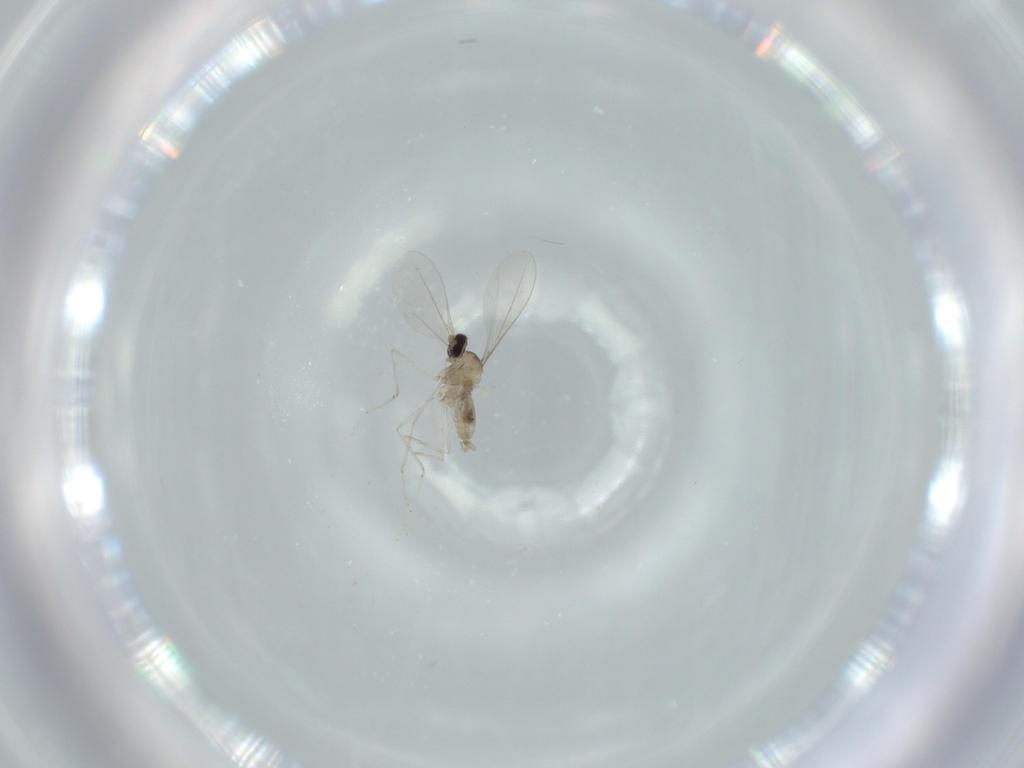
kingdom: Animalia
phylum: Arthropoda
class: Insecta
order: Diptera
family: Cecidomyiidae
